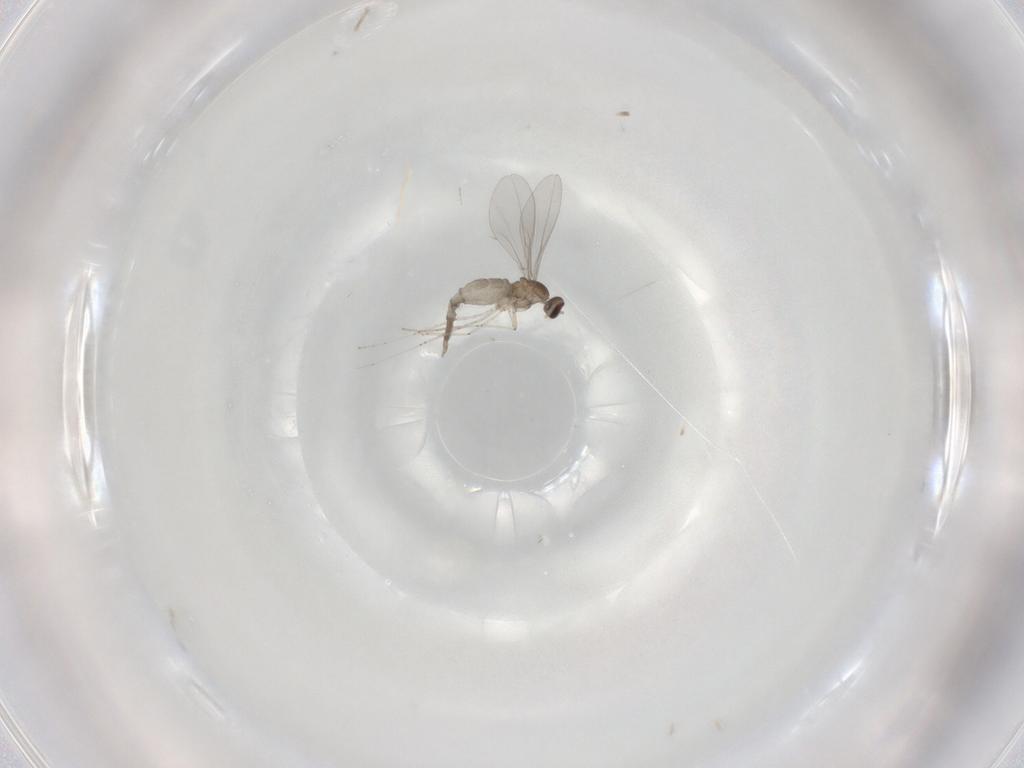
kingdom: Animalia
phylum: Arthropoda
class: Insecta
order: Diptera
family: Cecidomyiidae
